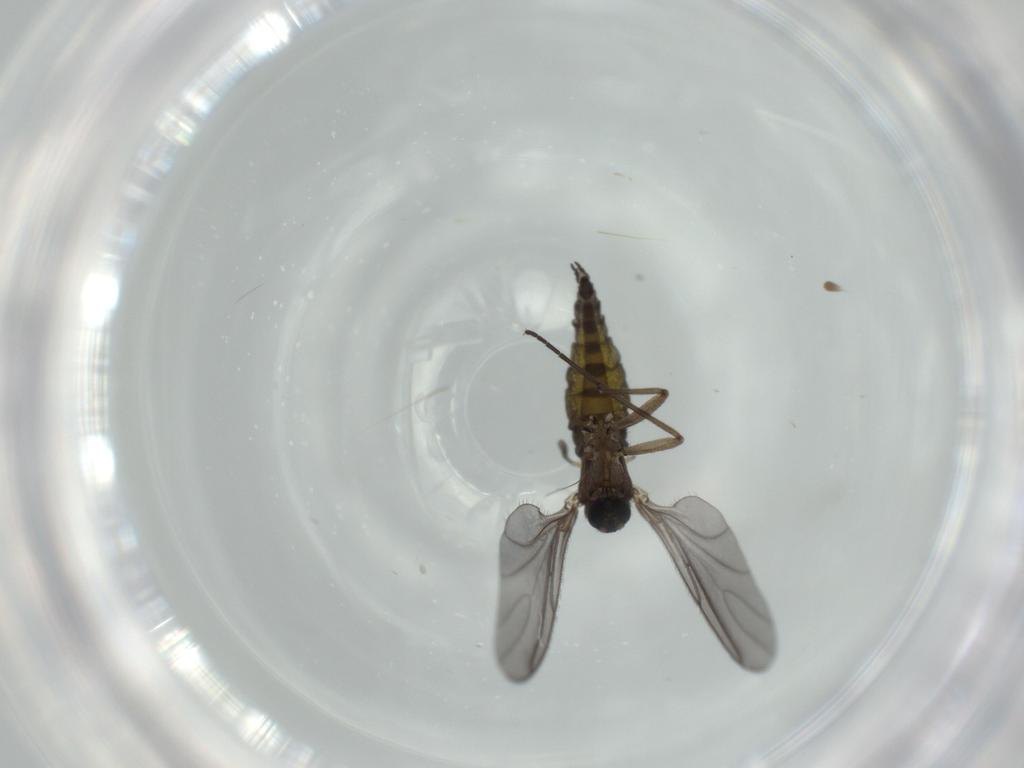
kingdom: Animalia
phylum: Arthropoda
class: Insecta
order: Diptera
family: Sciaridae
